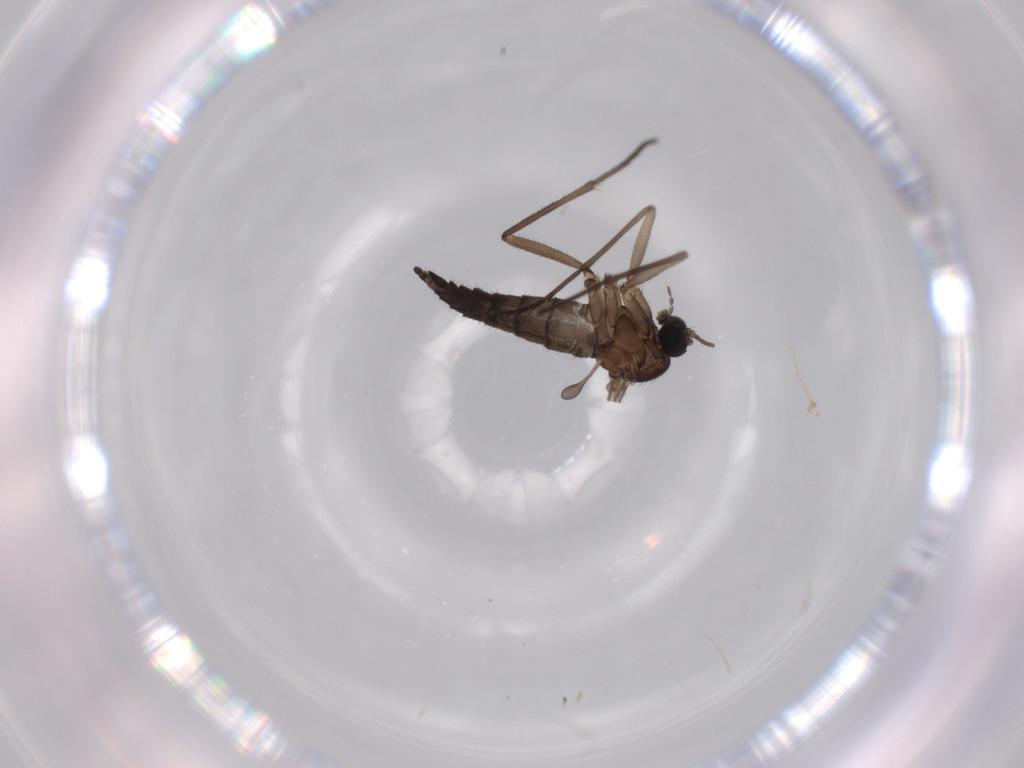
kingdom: Animalia
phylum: Arthropoda
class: Insecta
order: Diptera
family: Sciaridae
